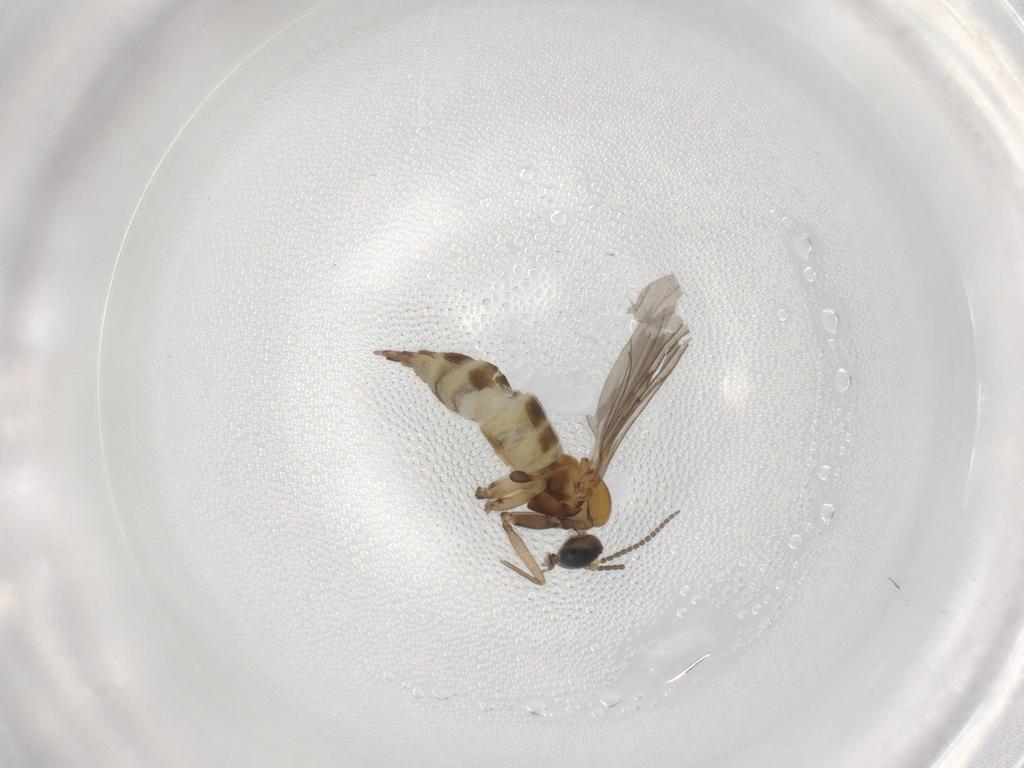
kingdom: Animalia
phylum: Arthropoda
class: Insecta
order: Diptera
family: Sciaridae
